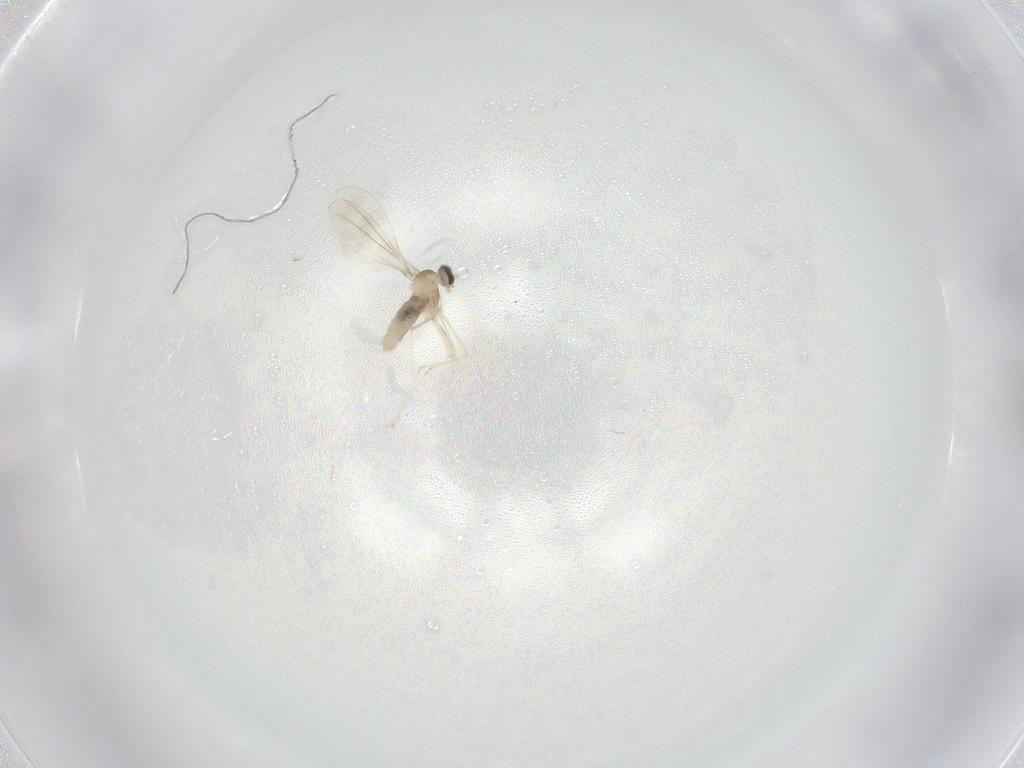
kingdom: Animalia
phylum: Arthropoda
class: Insecta
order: Diptera
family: Cecidomyiidae
